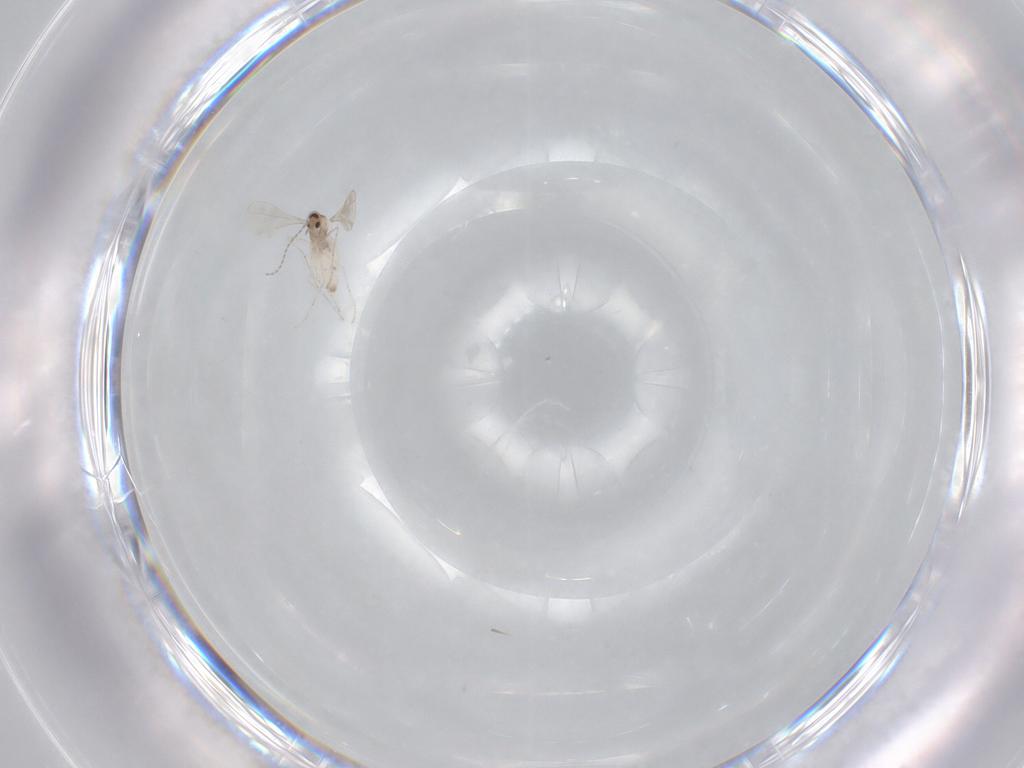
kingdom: Animalia
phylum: Arthropoda
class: Insecta
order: Diptera
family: Cecidomyiidae
